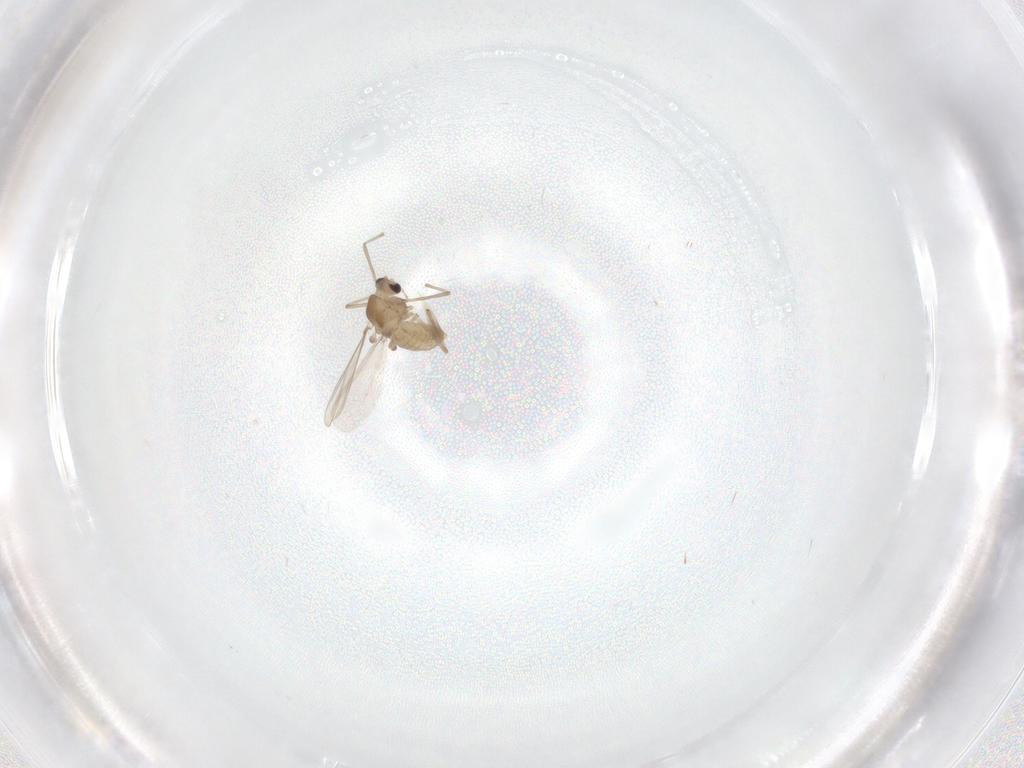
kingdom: Animalia
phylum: Arthropoda
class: Insecta
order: Diptera
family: Chironomidae
